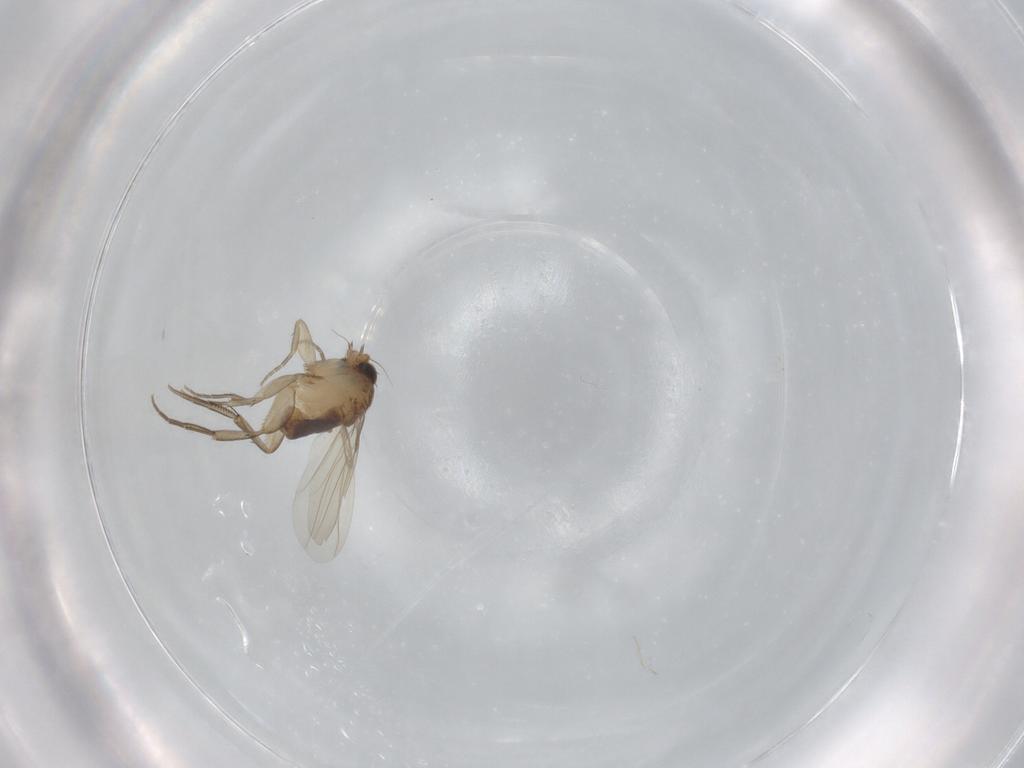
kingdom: Animalia
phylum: Arthropoda
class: Insecta
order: Diptera
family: Phoridae
